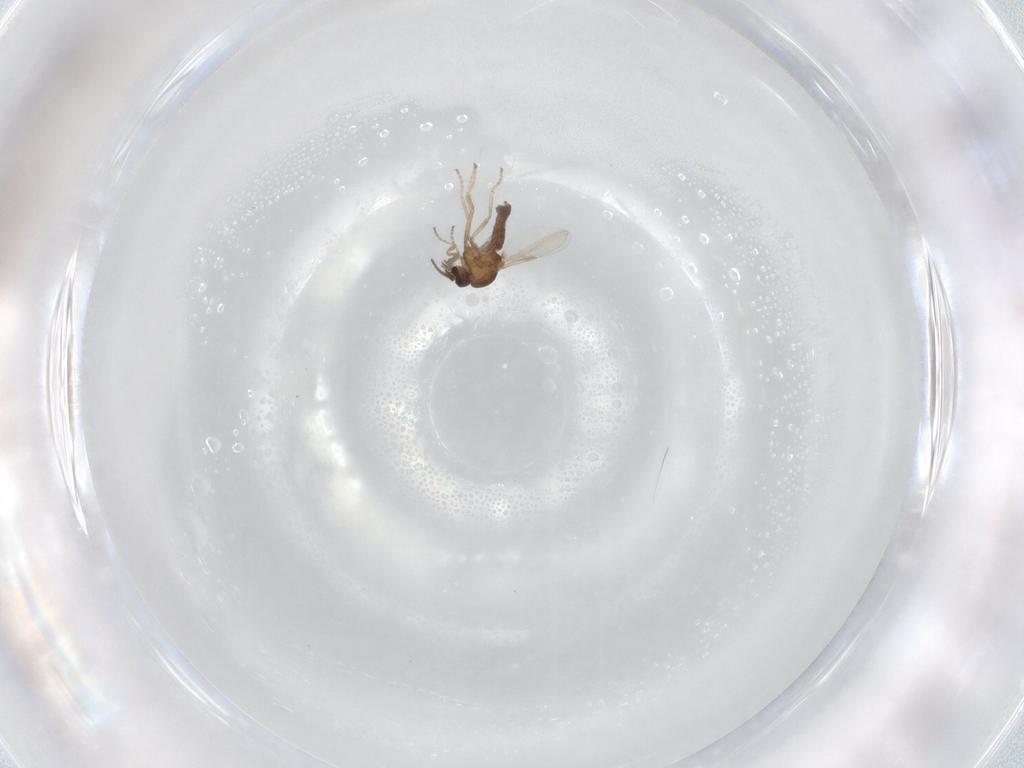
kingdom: Animalia
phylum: Arthropoda
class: Insecta
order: Diptera
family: Ceratopogonidae
